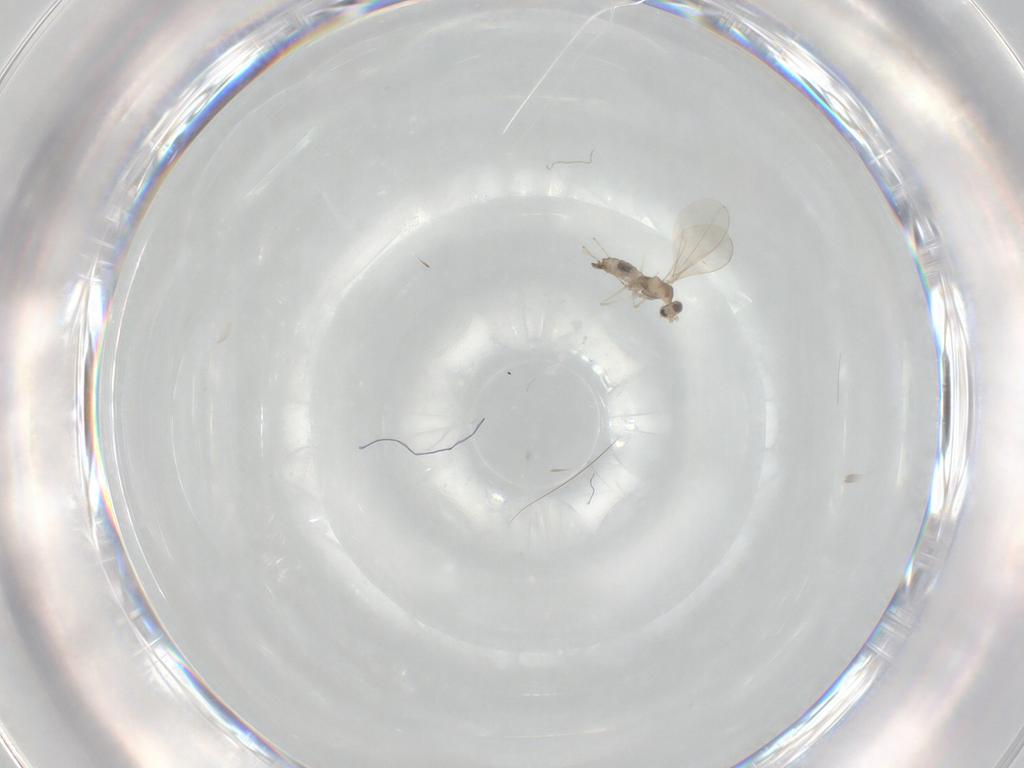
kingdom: Animalia
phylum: Arthropoda
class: Insecta
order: Diptera
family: Cecidomyiidae
